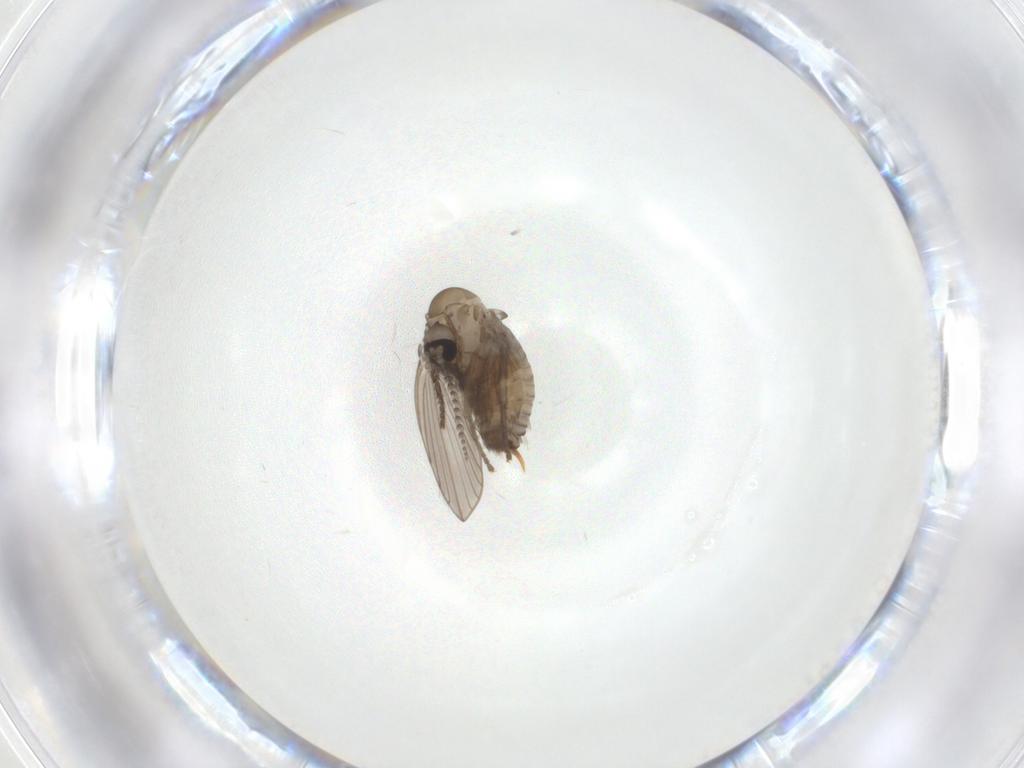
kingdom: Animalia
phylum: Arthropoda
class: Insecta
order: Diptera
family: Psychodidae
